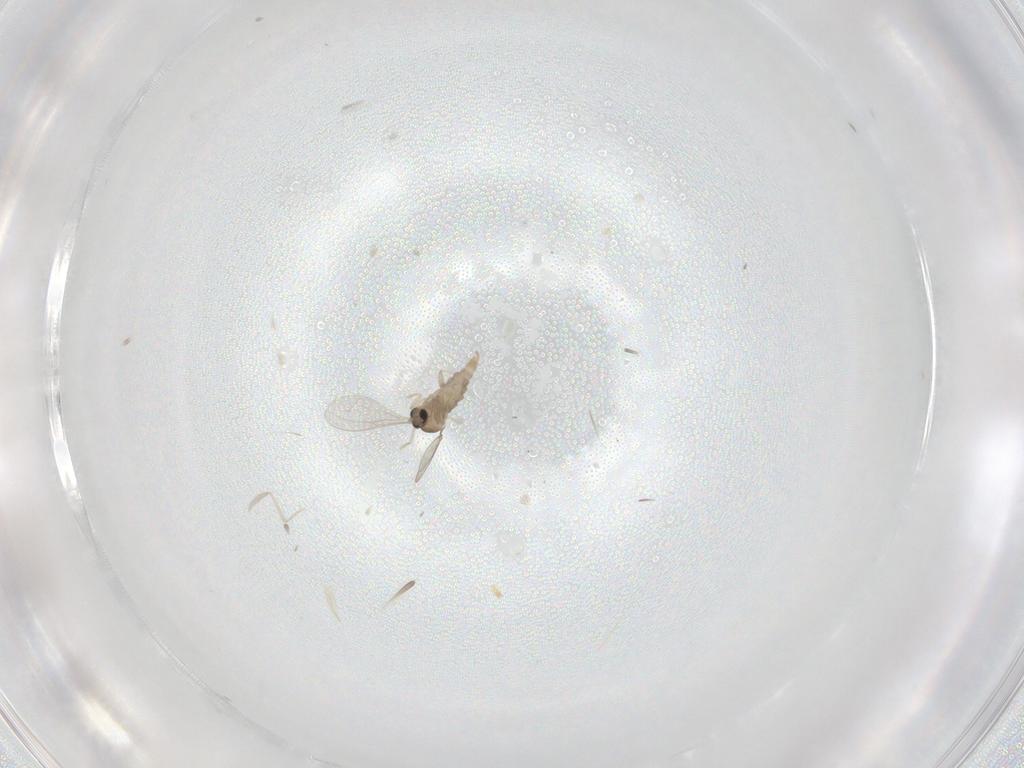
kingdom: Animalia
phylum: Arthropoda
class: Insecta
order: Diptera
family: Cecidomyiidae
